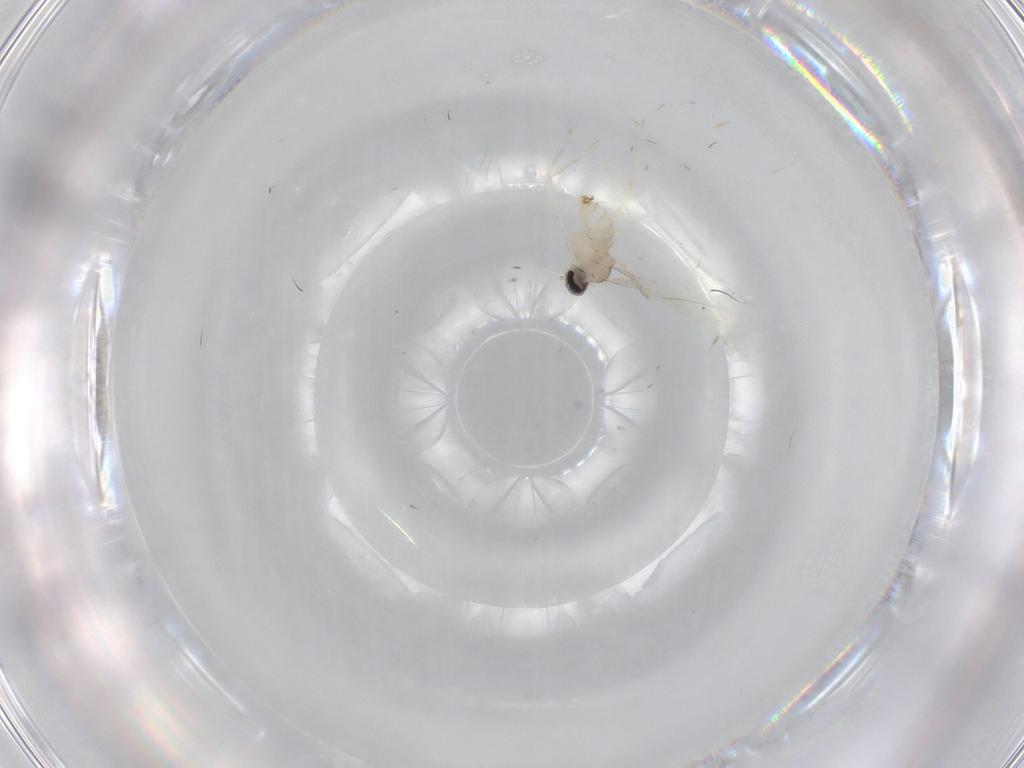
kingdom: Animalia
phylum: Arthropoda
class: Insecta
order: Diptera
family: Cecidomyiidae
